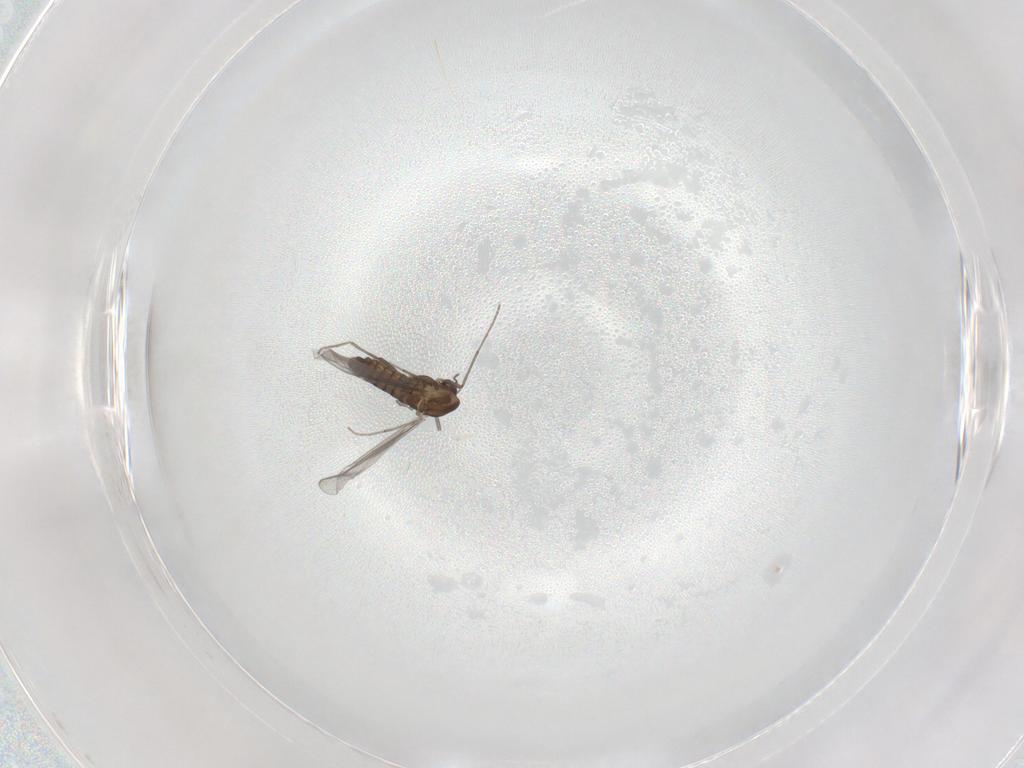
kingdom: Animalia
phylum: Arthropoda
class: Insecta
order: Diptera
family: Chironomidae
